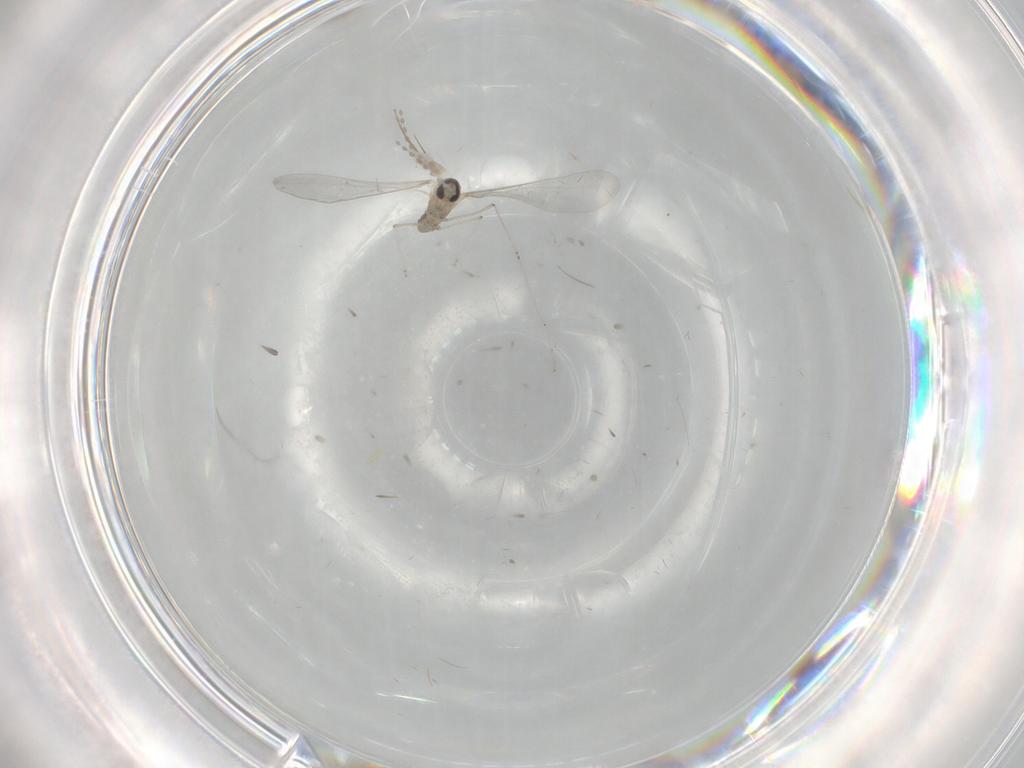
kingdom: Animalia
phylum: Arthropoda
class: Insecta
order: Diptera
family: Chironomidae
